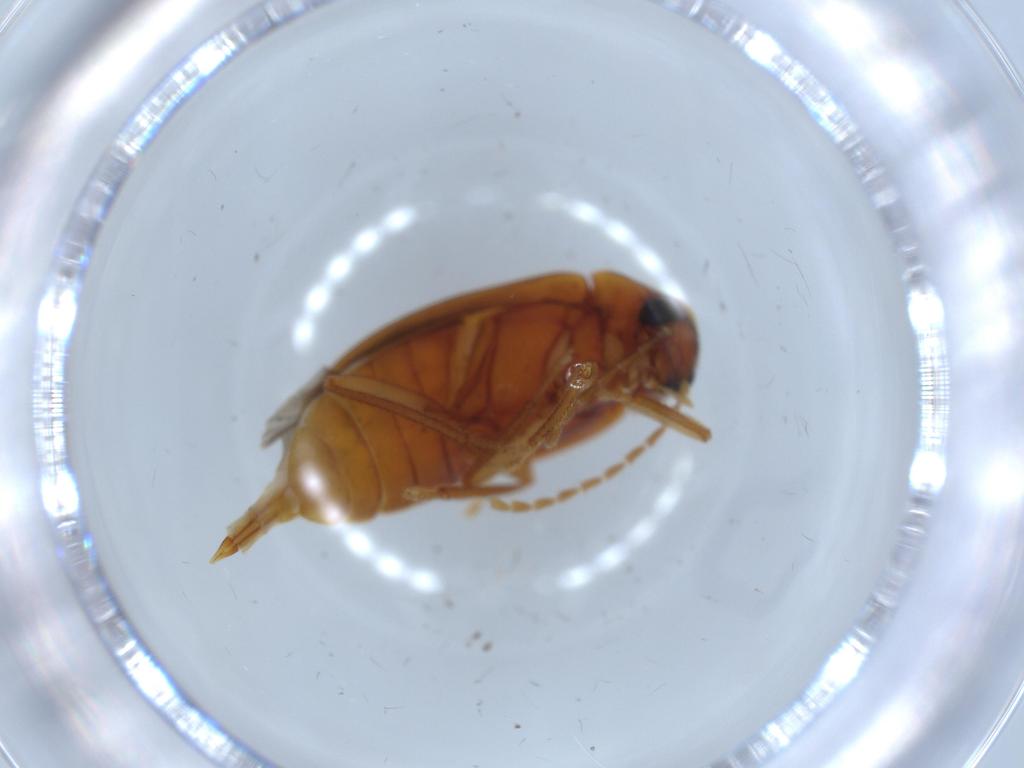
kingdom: Animalia
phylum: Arthropoda
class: Insecta
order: Coleoptera
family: Ptilodactylidae
